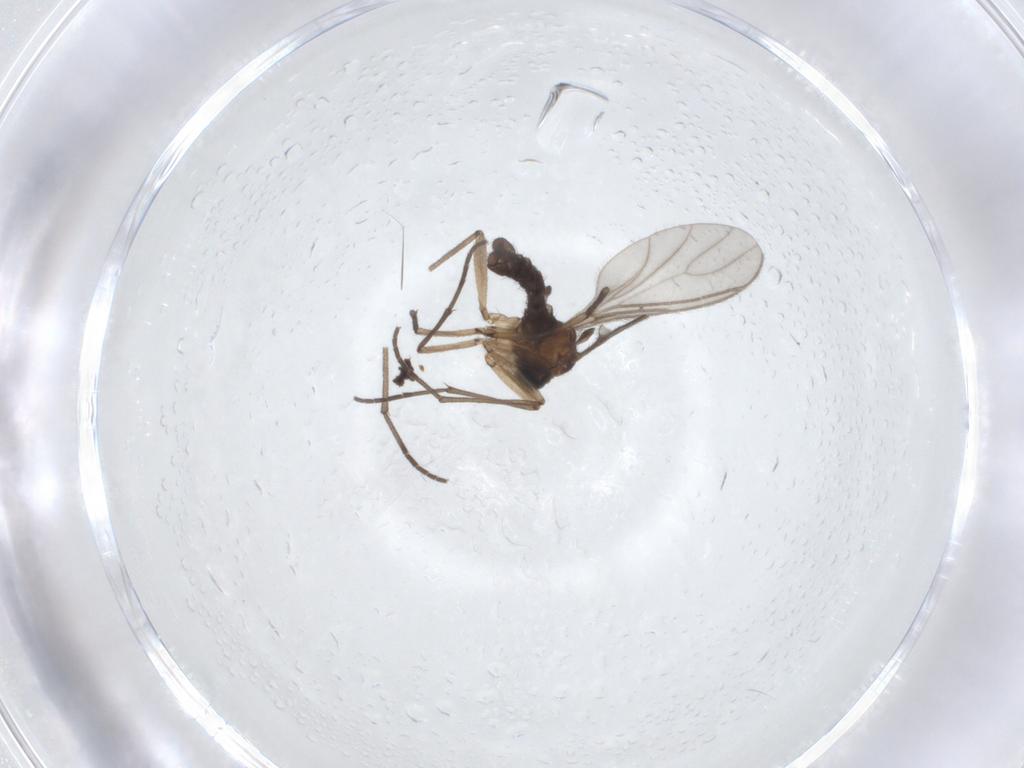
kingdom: Animalia
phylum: Arthropoda
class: Insecta
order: Diptera
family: Sciaridae
